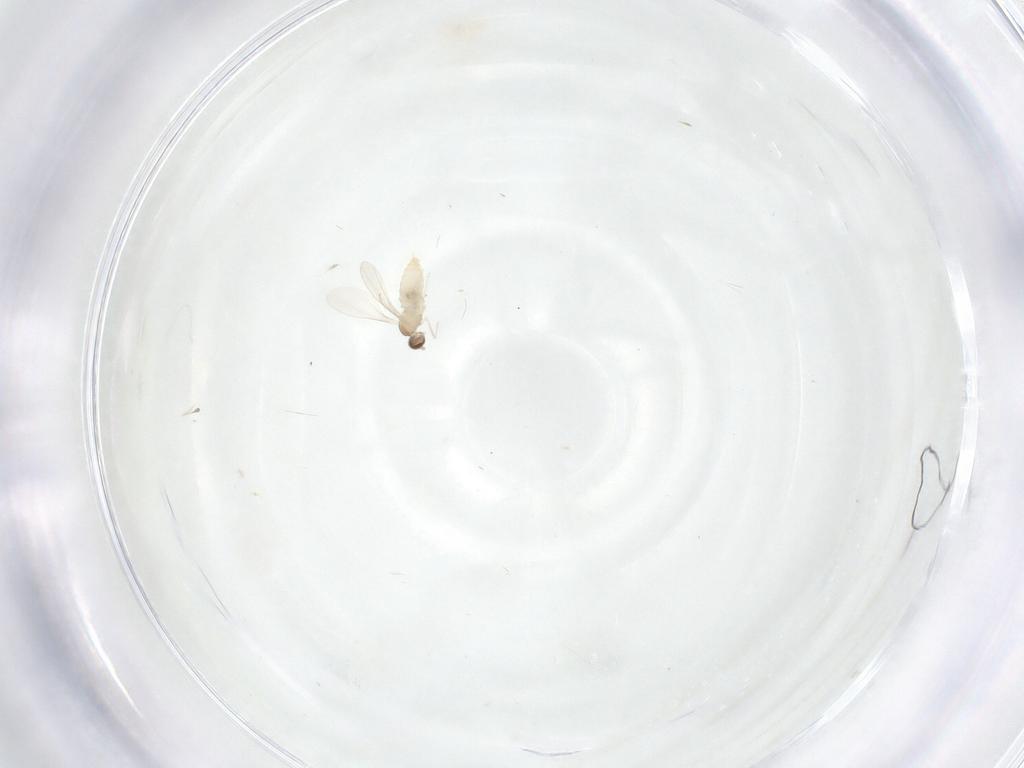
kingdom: Animalia
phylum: Arthropoda
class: Insecta
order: Diptera
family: Cecidomyiidae
